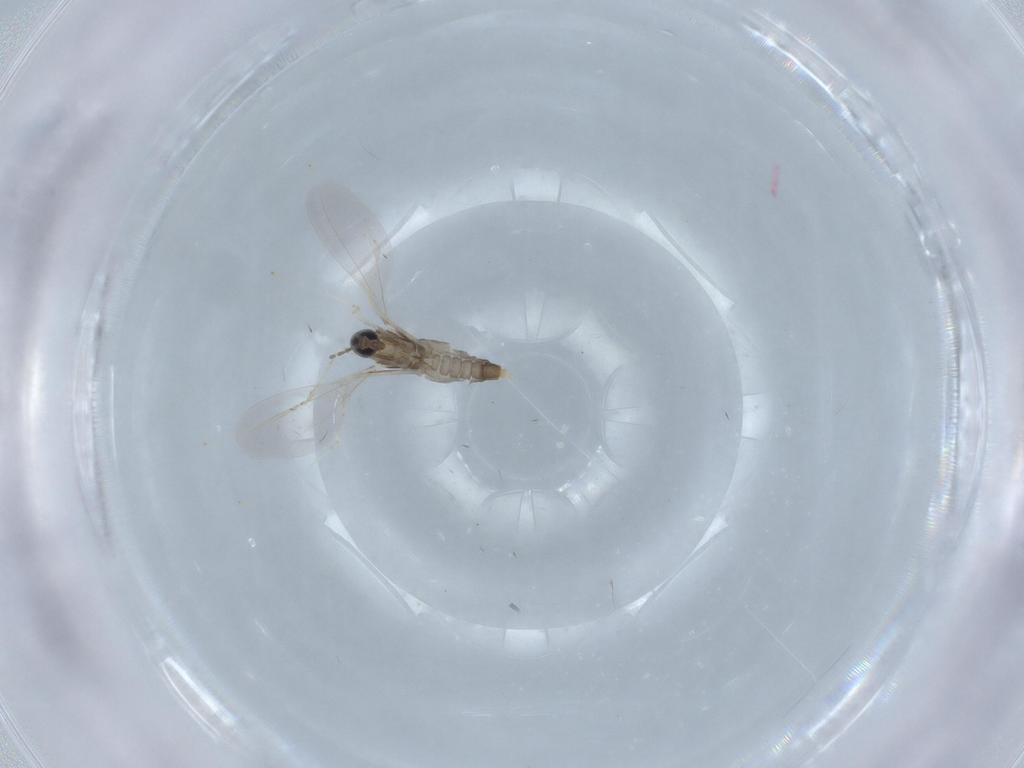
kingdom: Animalia
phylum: Arthropoda
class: Insecta
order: Diptera
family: Cecidomyiidae
